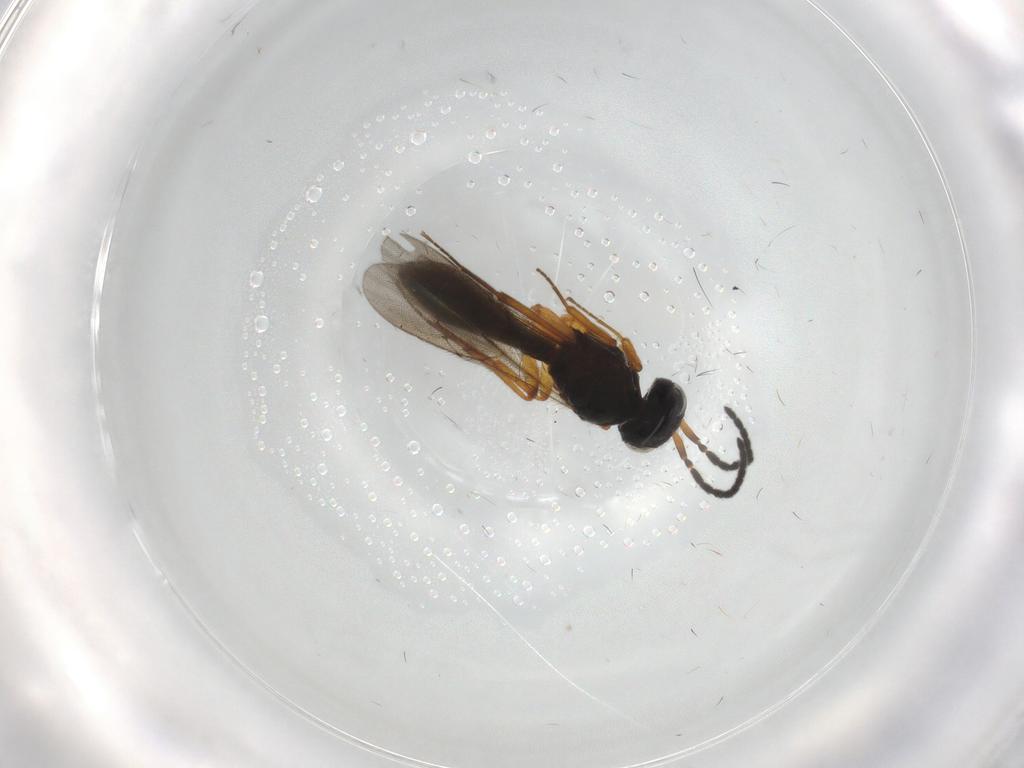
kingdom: Animalia
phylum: Arthropoda
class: Insecta
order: Hymenoptera
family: Scelionidae
